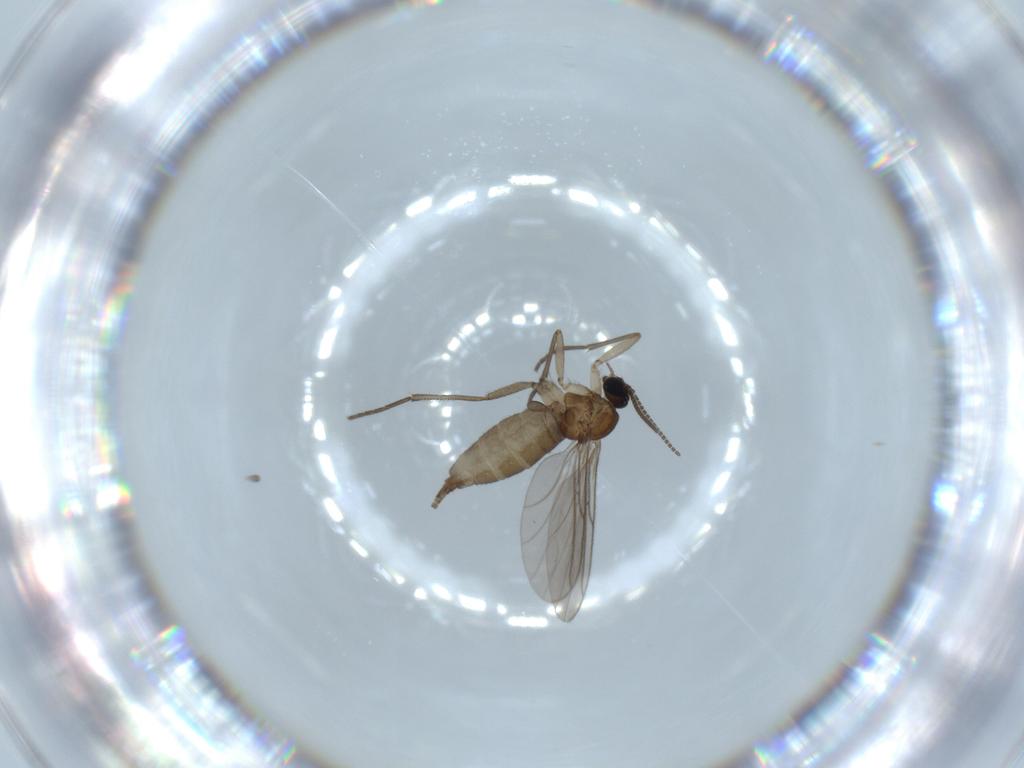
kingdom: Animalia
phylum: Arthropoda
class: Insecta
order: Diptera
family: Sciaridae
